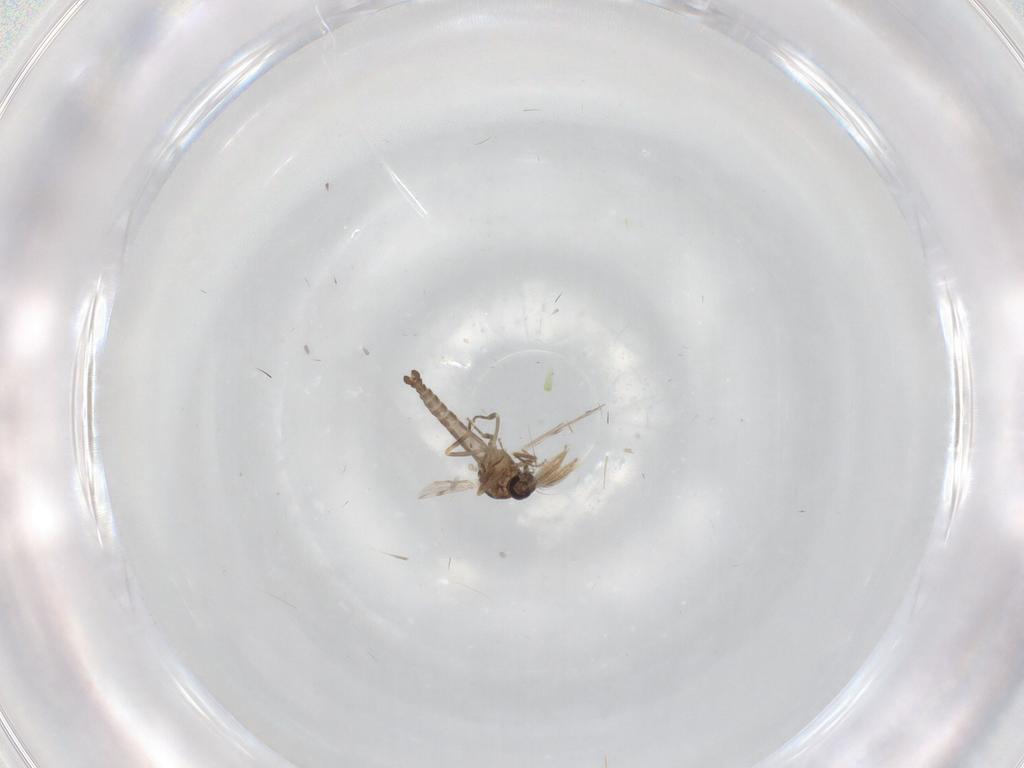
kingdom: Animalia
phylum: Arthropoda
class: Insecta
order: Diptera
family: Ceratopogonidae
